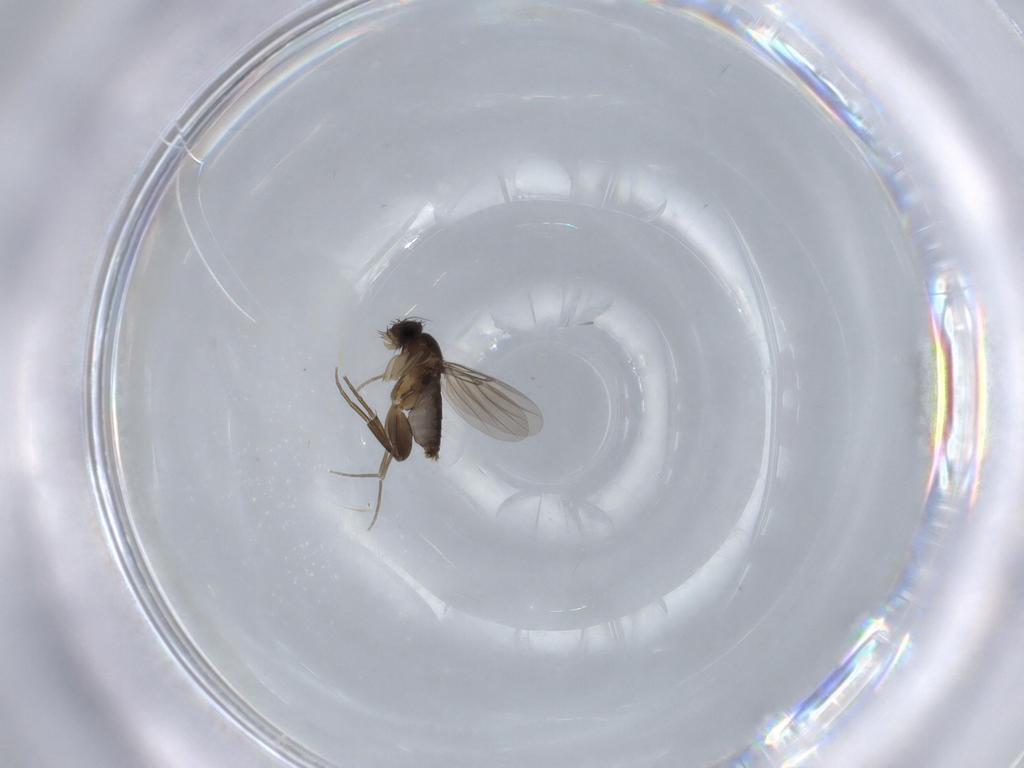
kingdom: Animalia
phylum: Arthropoda
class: Insecta
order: Diptera
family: Phoridae
